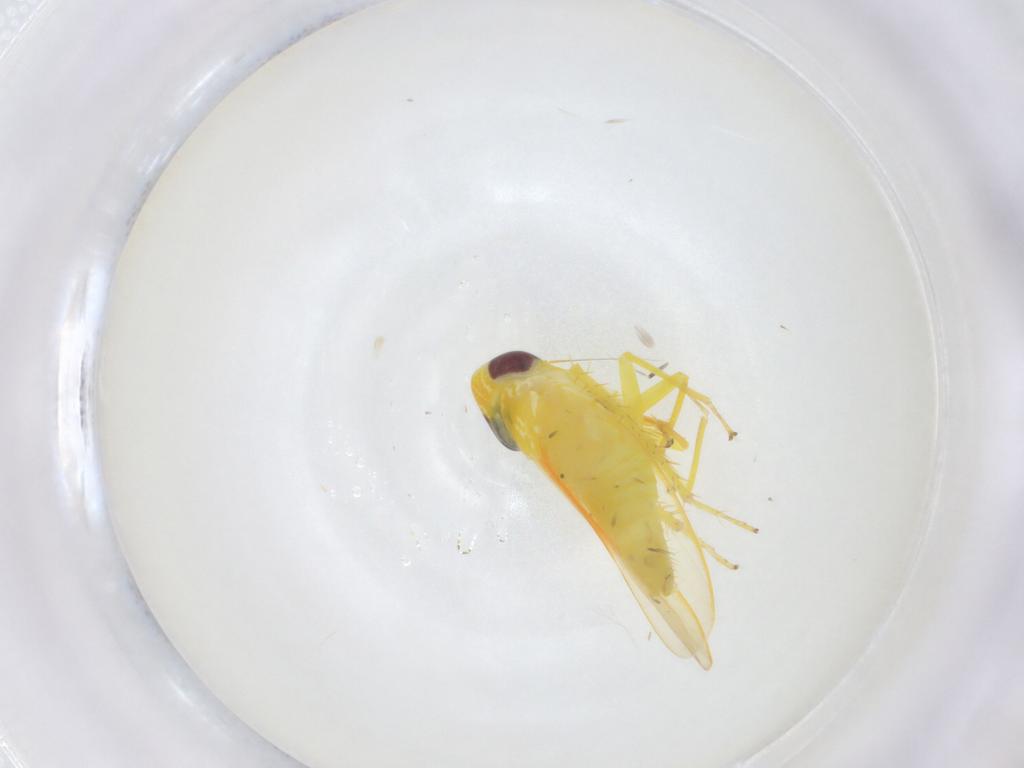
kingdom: Animalia
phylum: Arthropoda
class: Insecta
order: Hemiptera
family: Cicadellidae
